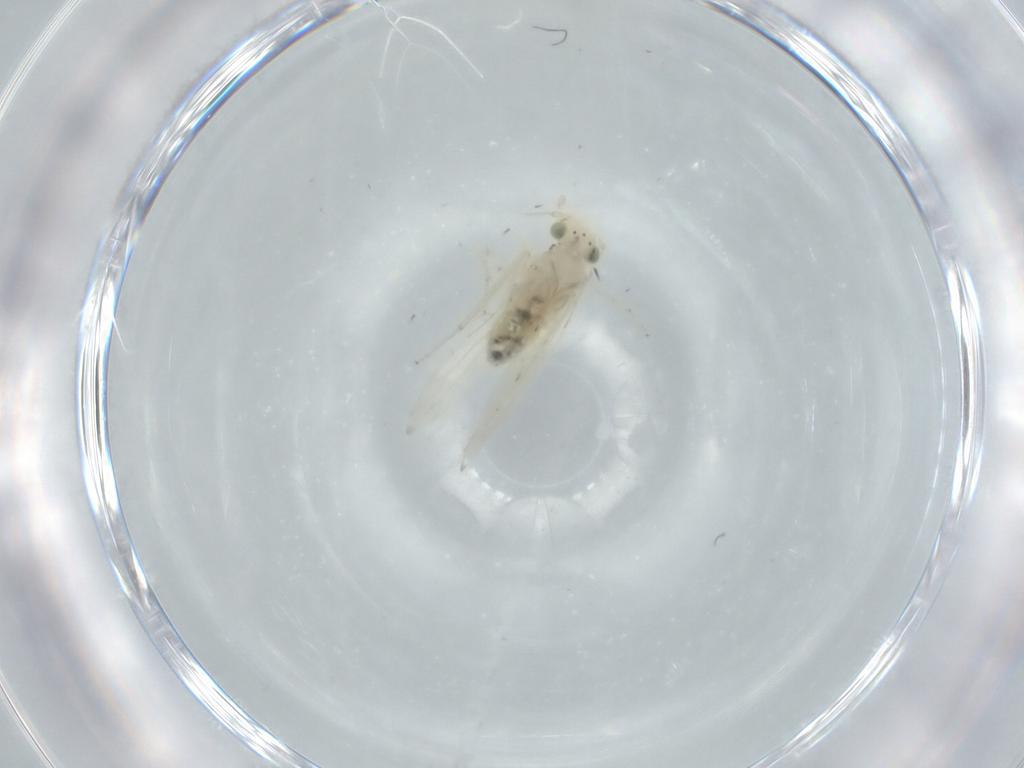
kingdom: Animalia
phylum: Arthropoda
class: Insecta
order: Psocodea
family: Lepidopsocidae
